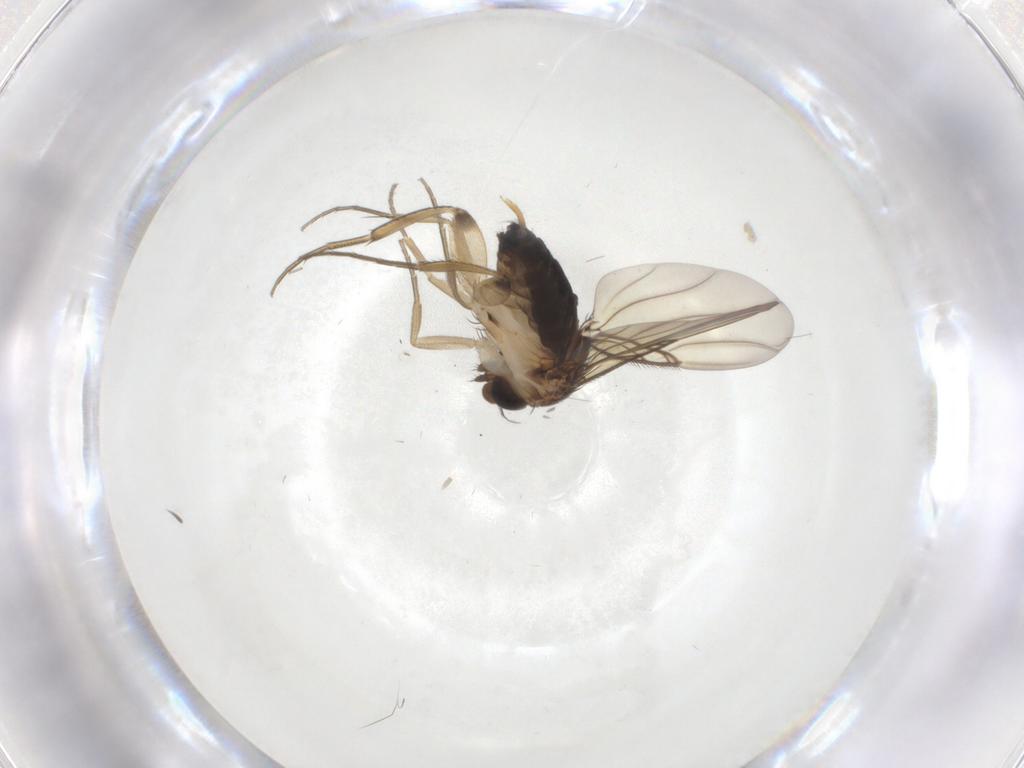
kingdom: Animalia
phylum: Arthropoda
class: Insecta
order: Diptera
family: Phoridae
